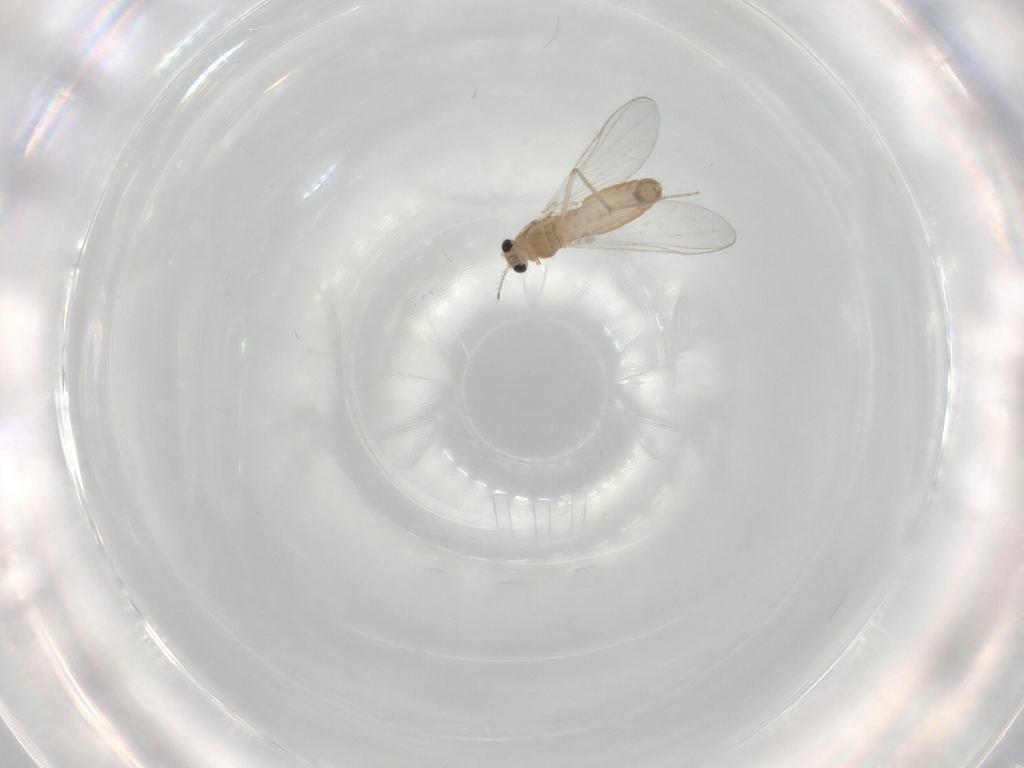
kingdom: Animalia
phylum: Arthropoda
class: Insecta
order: Diptera
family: Chironomidae
